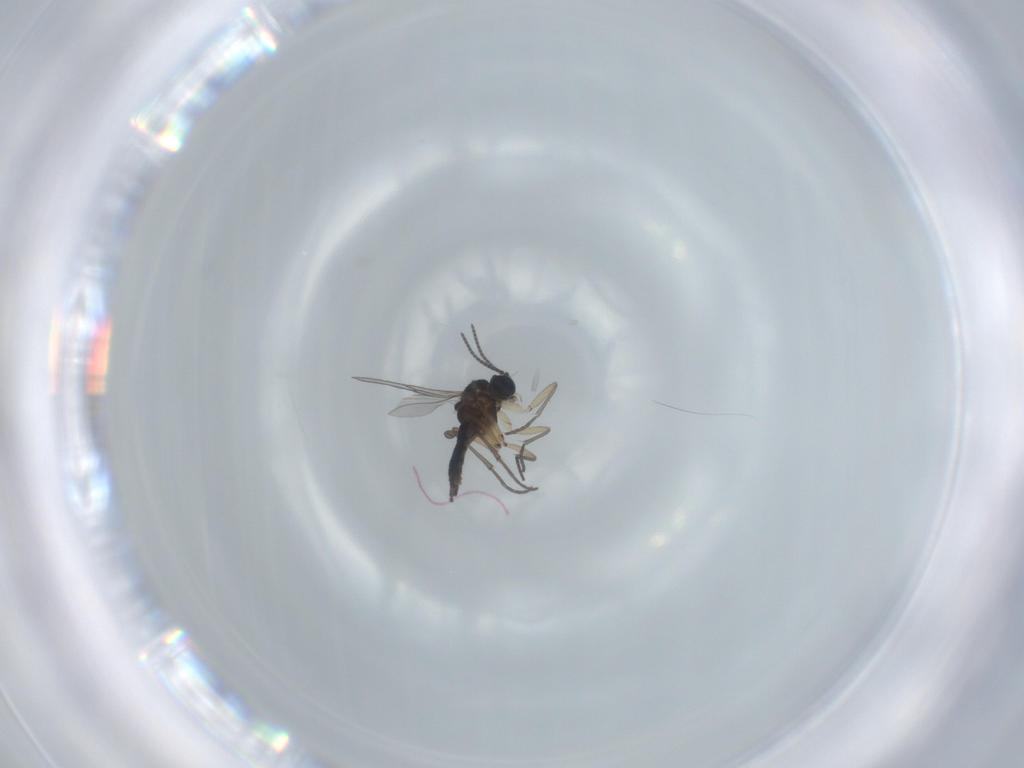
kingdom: Animalia
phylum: Arthropoda
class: Insecta
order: Diptera
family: Sciaridae
